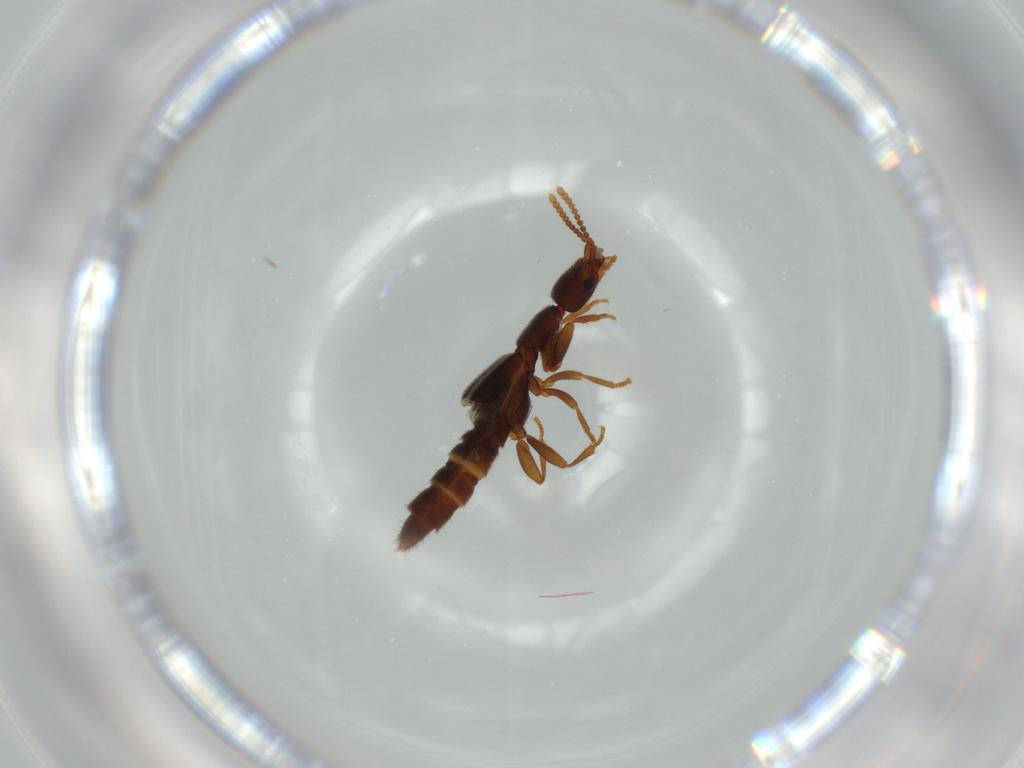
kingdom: Animalia
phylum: Arthropoda
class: Insecta
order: Coleoptera
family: Staphylinidae
